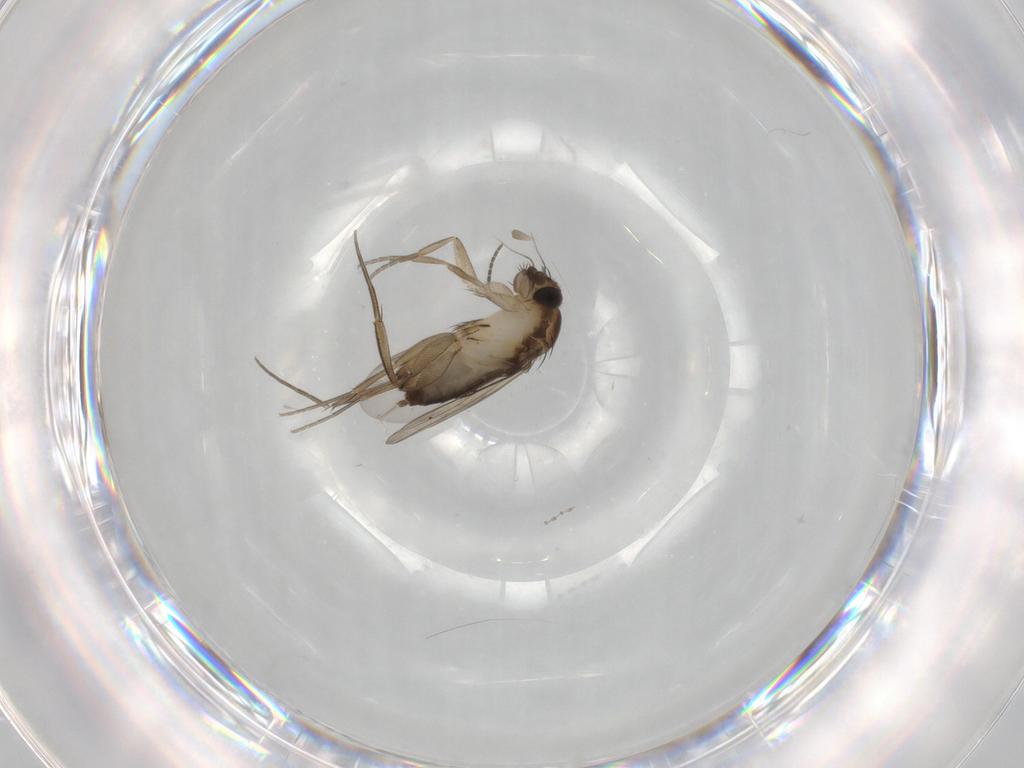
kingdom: Animalia
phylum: Arthropoda
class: Insecta
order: Diptera
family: Phoridae
